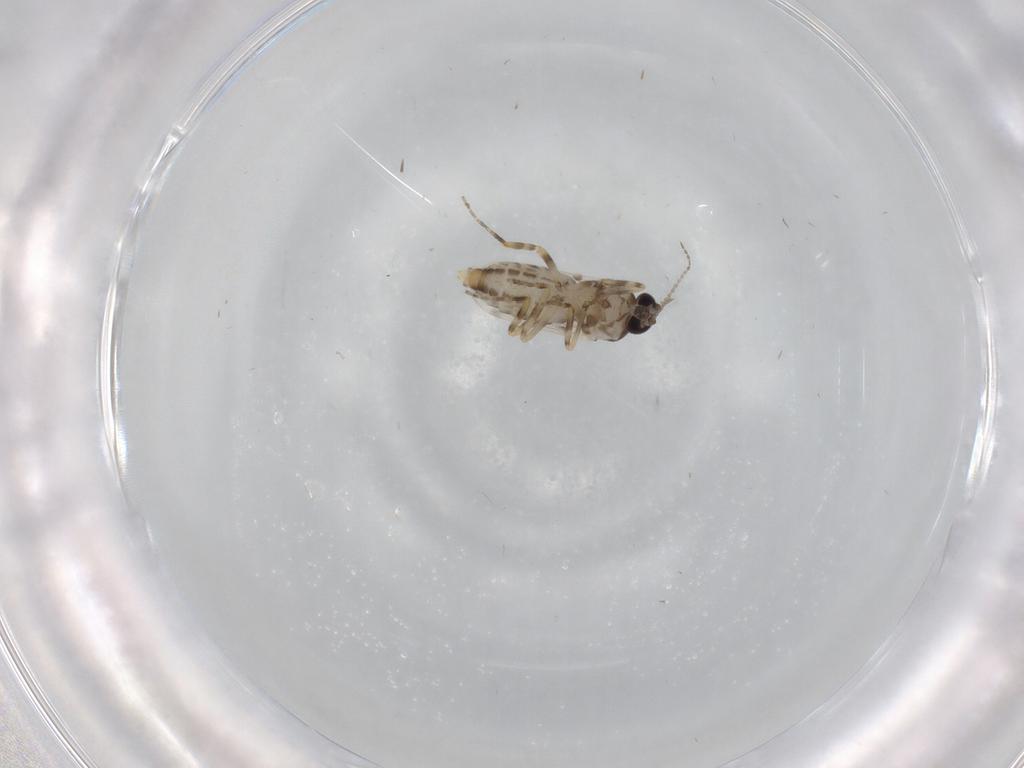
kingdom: Animalia
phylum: Arthropoda
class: Insecta
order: Diptera
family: Ceratopogonidae
